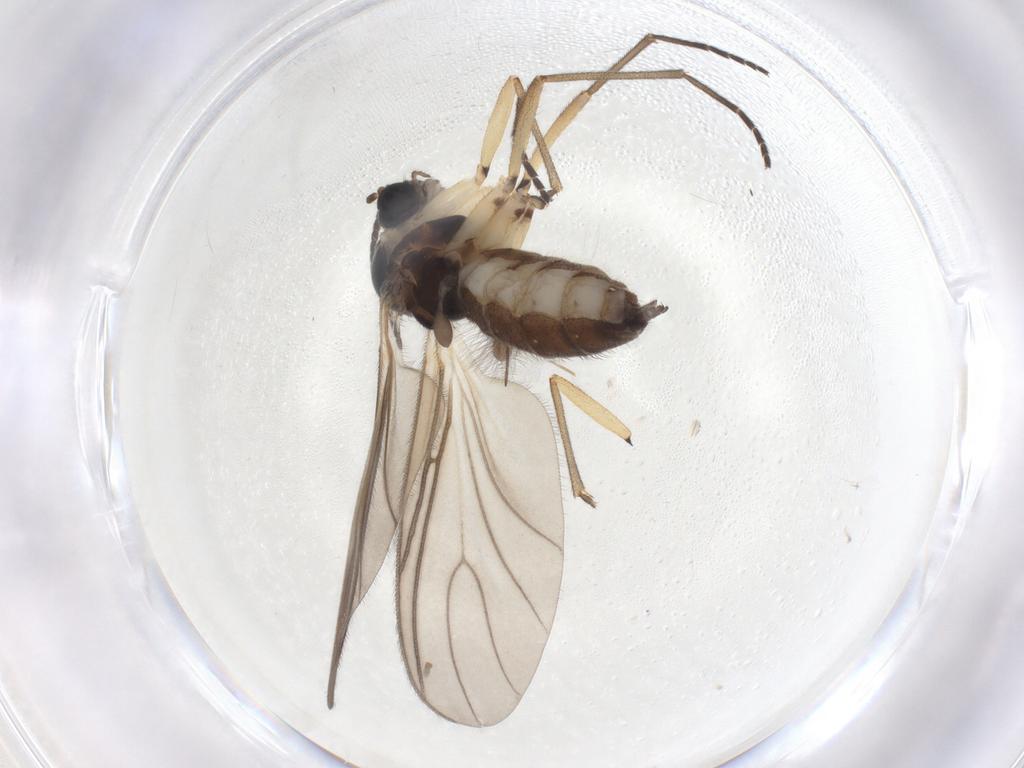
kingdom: Animalia
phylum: Arthropoda
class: Insecta
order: Diptera
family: Sciaridae
